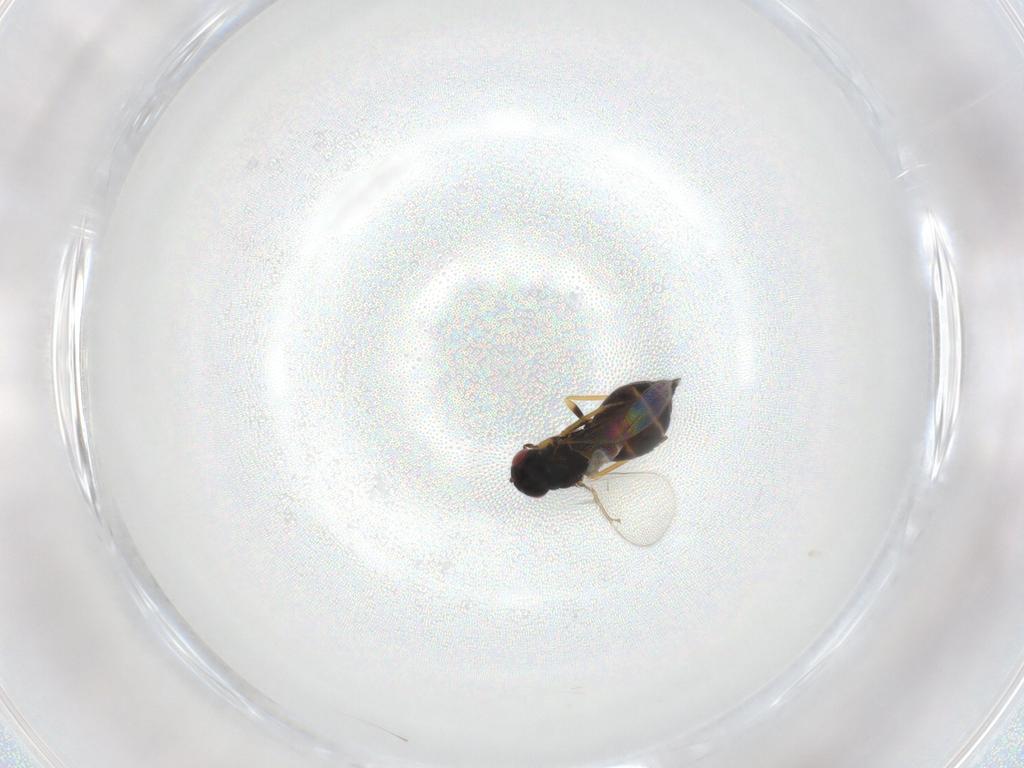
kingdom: Animalia
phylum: Arthropoda
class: Insecta
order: Hymenoptera
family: Eulophidae
